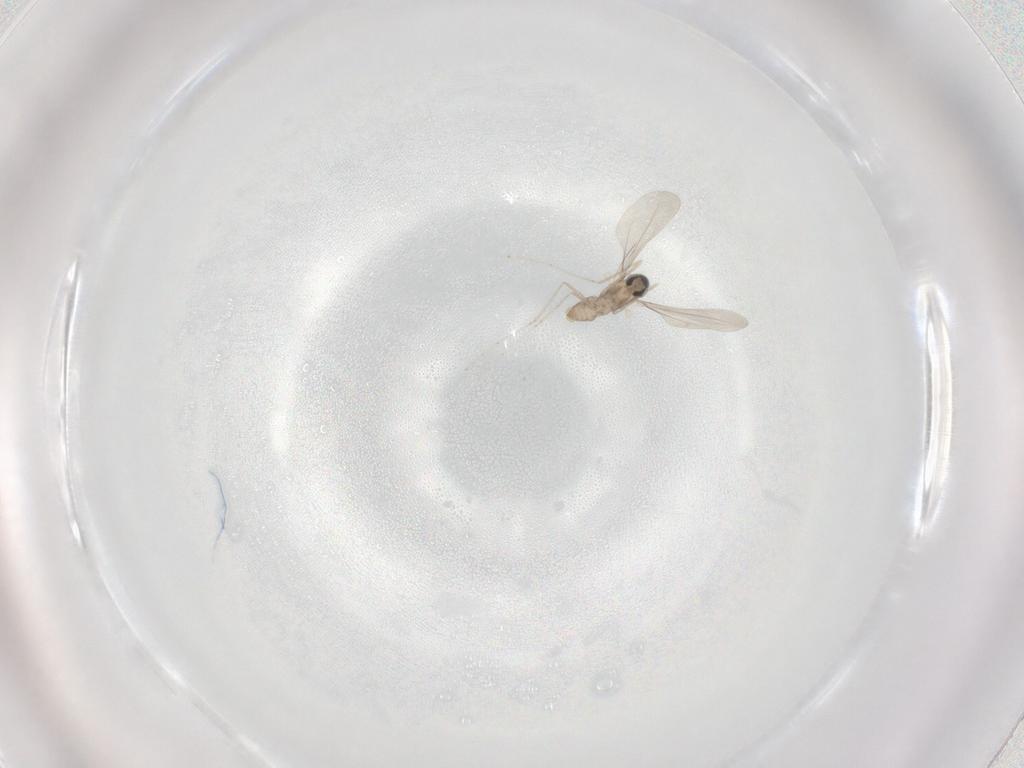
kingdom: Animalia
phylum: Arthropoda
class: Insecta
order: Diptera
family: Cecidomyiidae
